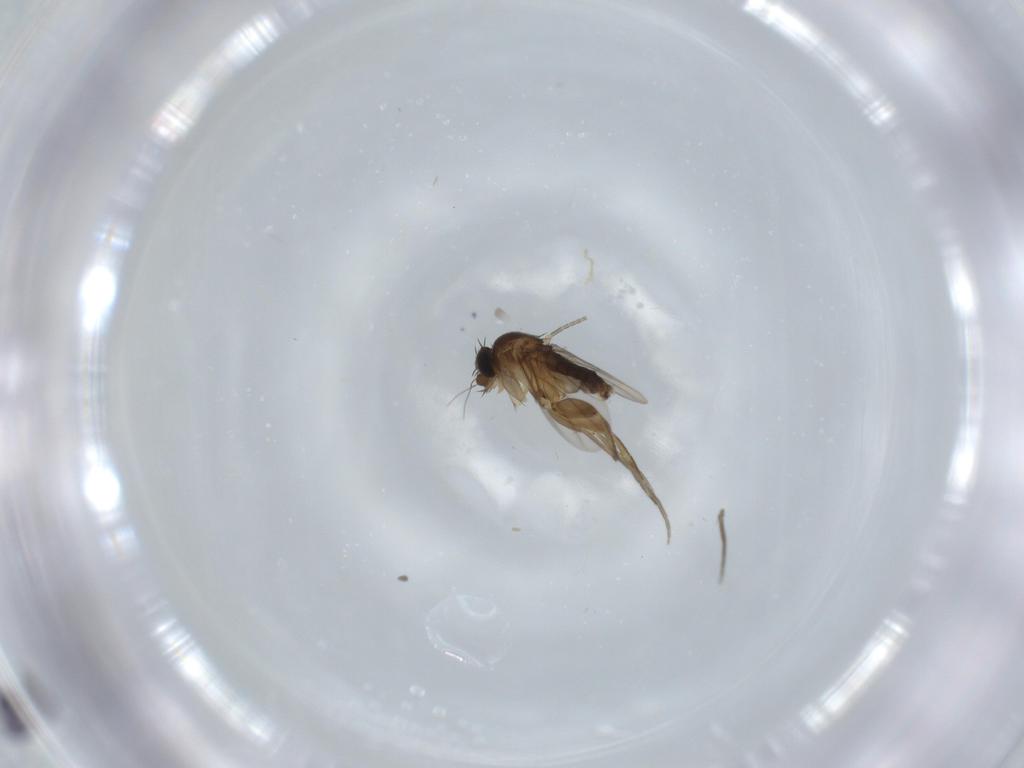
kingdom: Animalia
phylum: Arthropoda
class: Insecta
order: Diptera
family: Phoridae
